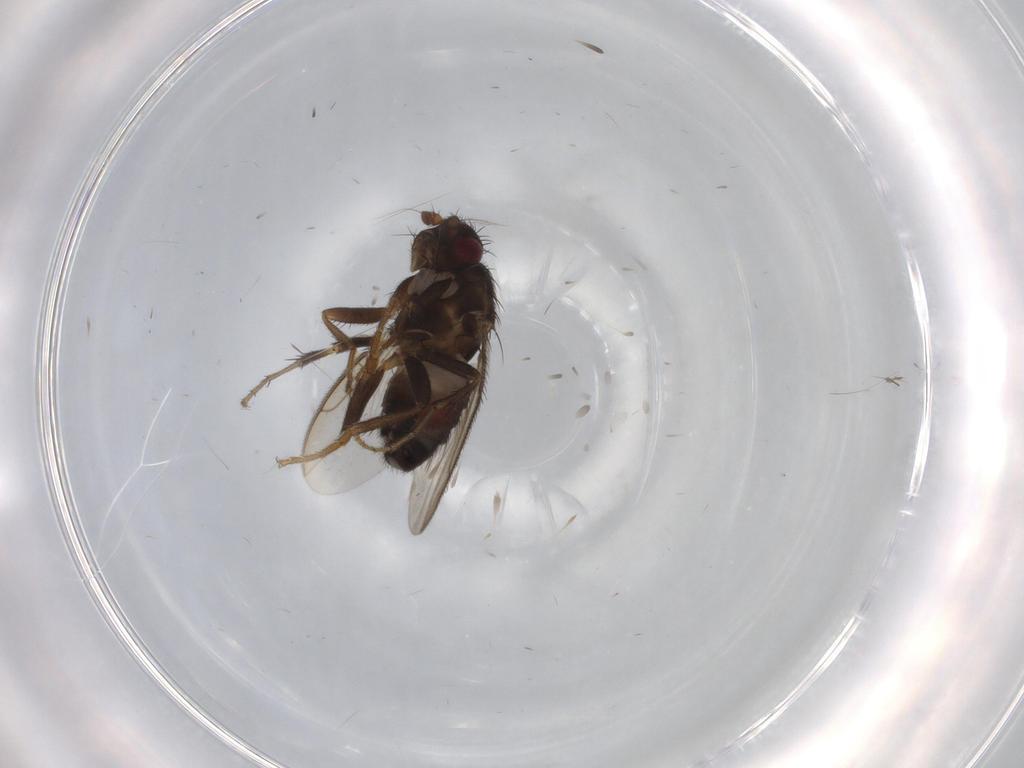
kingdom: Animalia
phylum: Arthropoda
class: Insecta
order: Diptera
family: Sphaeroceridae
